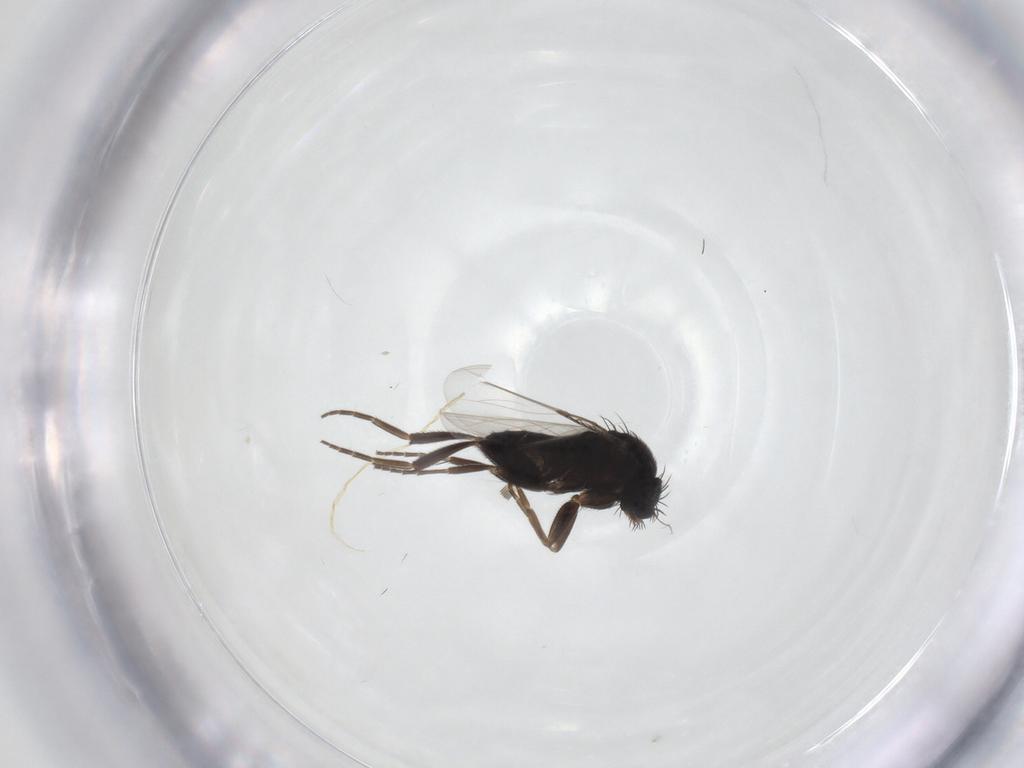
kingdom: Animalia
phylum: Arthropoda
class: Insecta
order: Diptera
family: Phoridae
